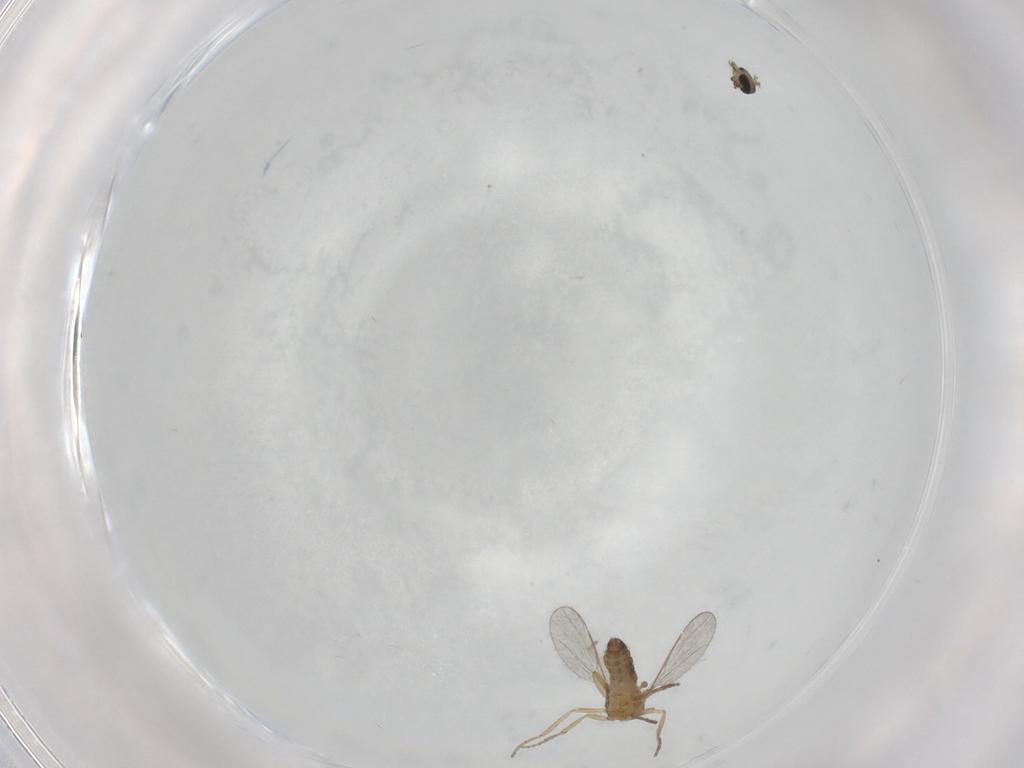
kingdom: Animalia
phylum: Arthropoda
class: Insecta
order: Diptera
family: Ceratopogonidae
